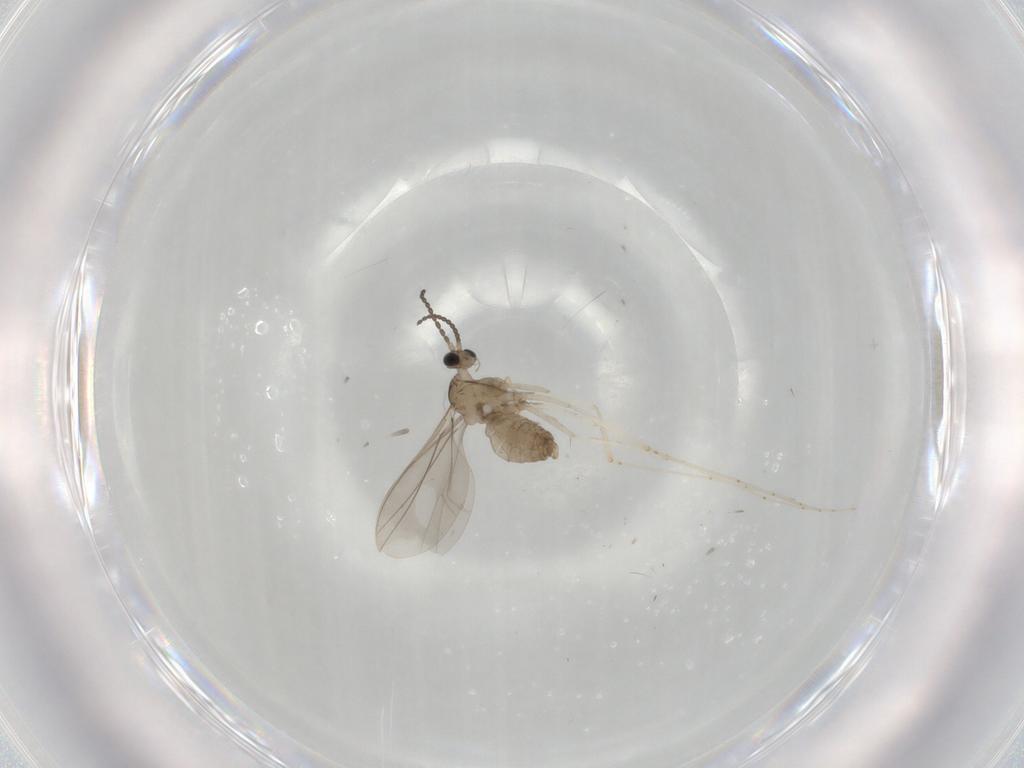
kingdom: Animalia
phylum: Arthropoda
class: Insecta
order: Diptera
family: Cecidomyiidae
